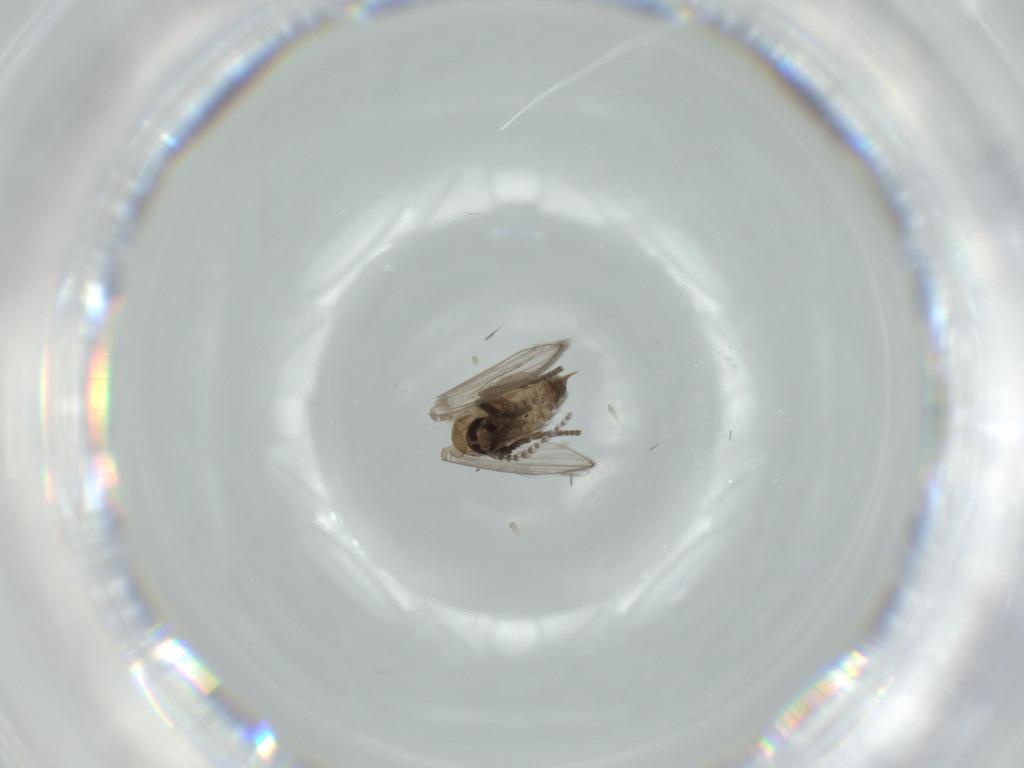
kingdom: Animalia
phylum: Arthropoda
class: Insecta
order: Diptera
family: Psychodidae
